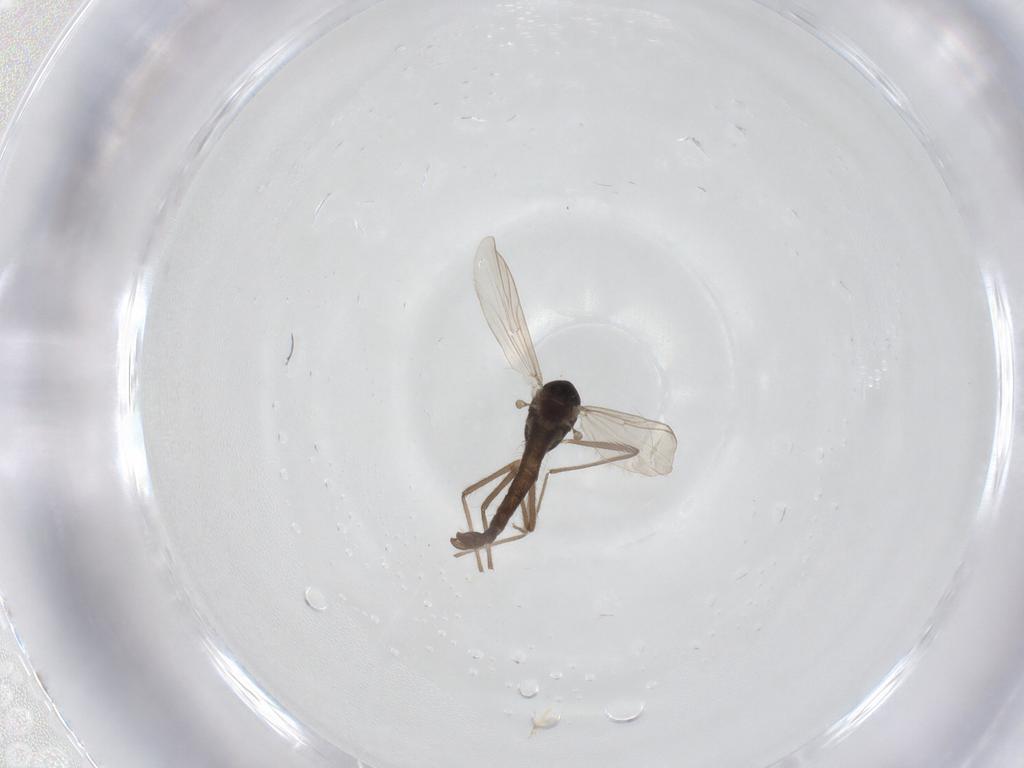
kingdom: Animalia
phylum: Arthropoda
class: Insecta
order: Diptera
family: Chironomidae
